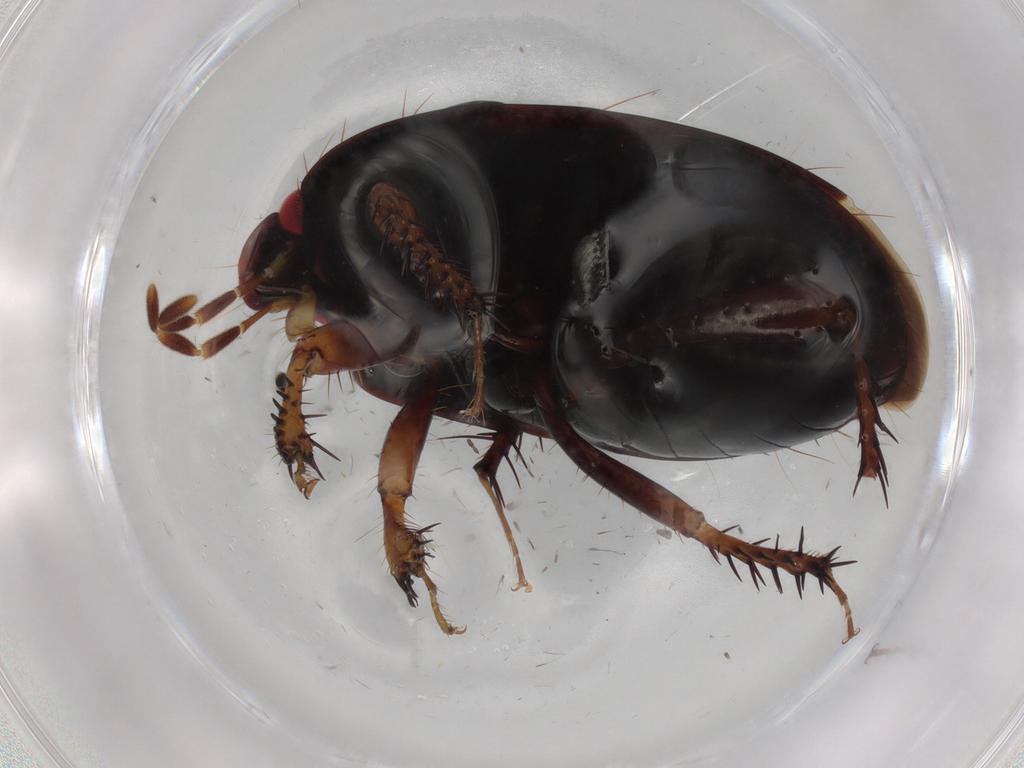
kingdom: Animalia
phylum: Arthropoda
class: Insecta
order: Hemiptera
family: Cydnidae
